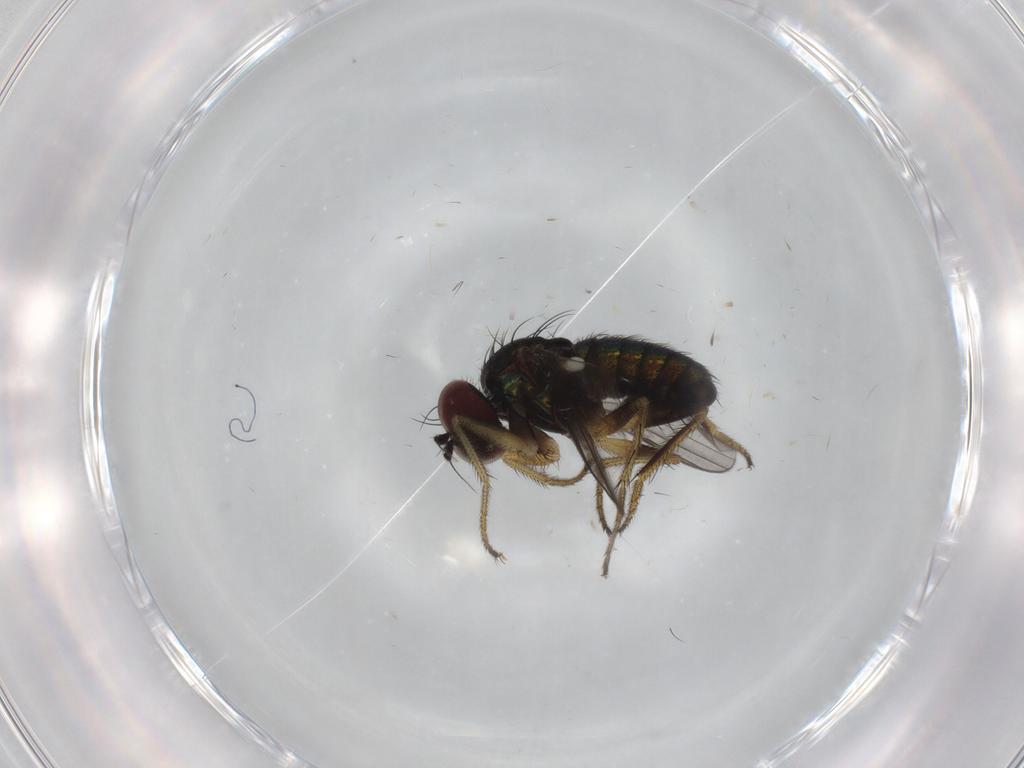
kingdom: Animalia
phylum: Arthropoda
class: Insecta
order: Diptera
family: Dolichopodidae
